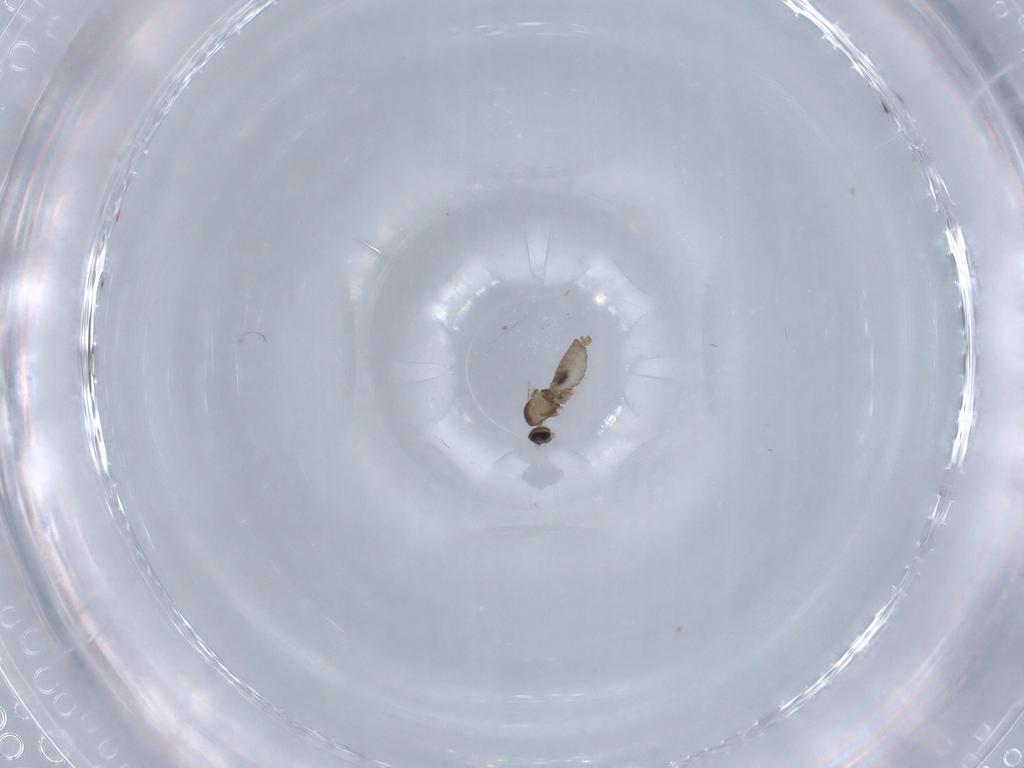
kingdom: Animalia
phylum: Arthropoda
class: Insecta
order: Diptera
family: Cecidomyiidae
